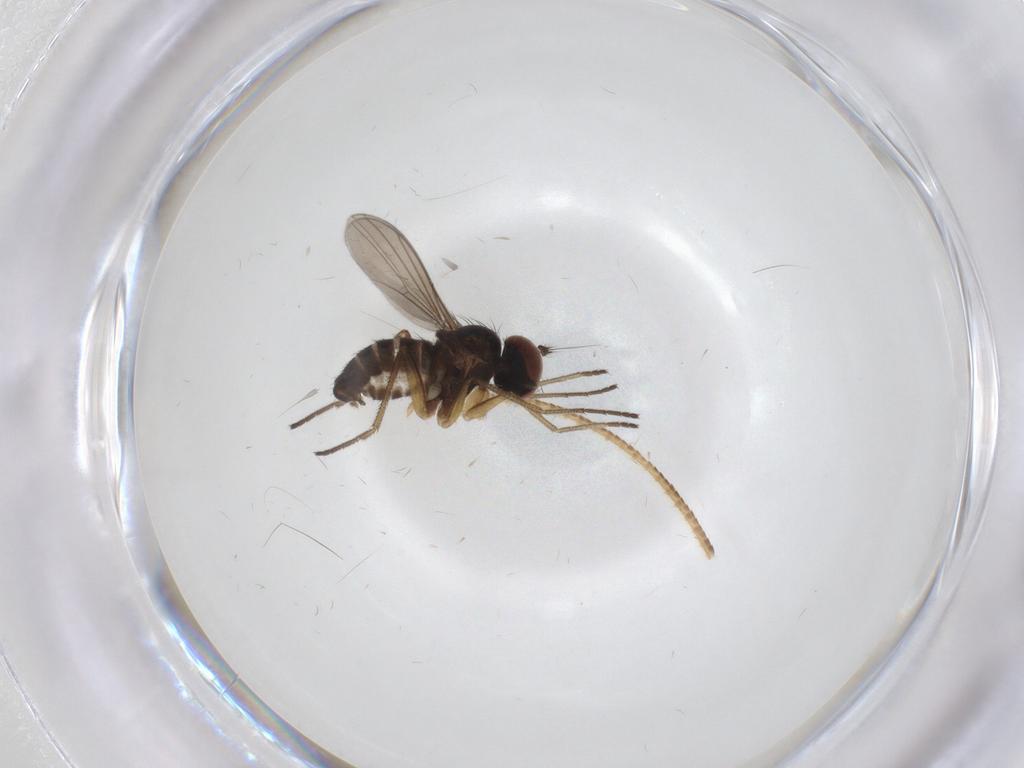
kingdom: Animalia
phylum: Arthropoda
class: Insecta
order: Diptera
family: Dolichopodidae
